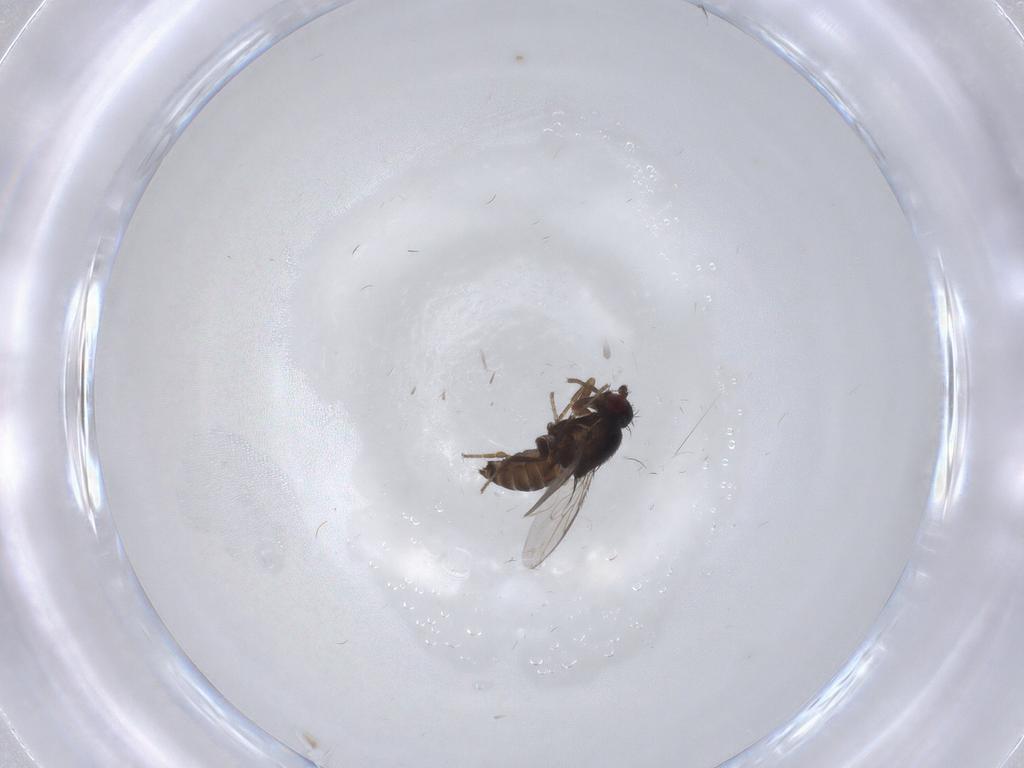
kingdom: Animalia
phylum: Arthropoda
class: Insecta
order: Diptera
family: Sphaeroceridae
